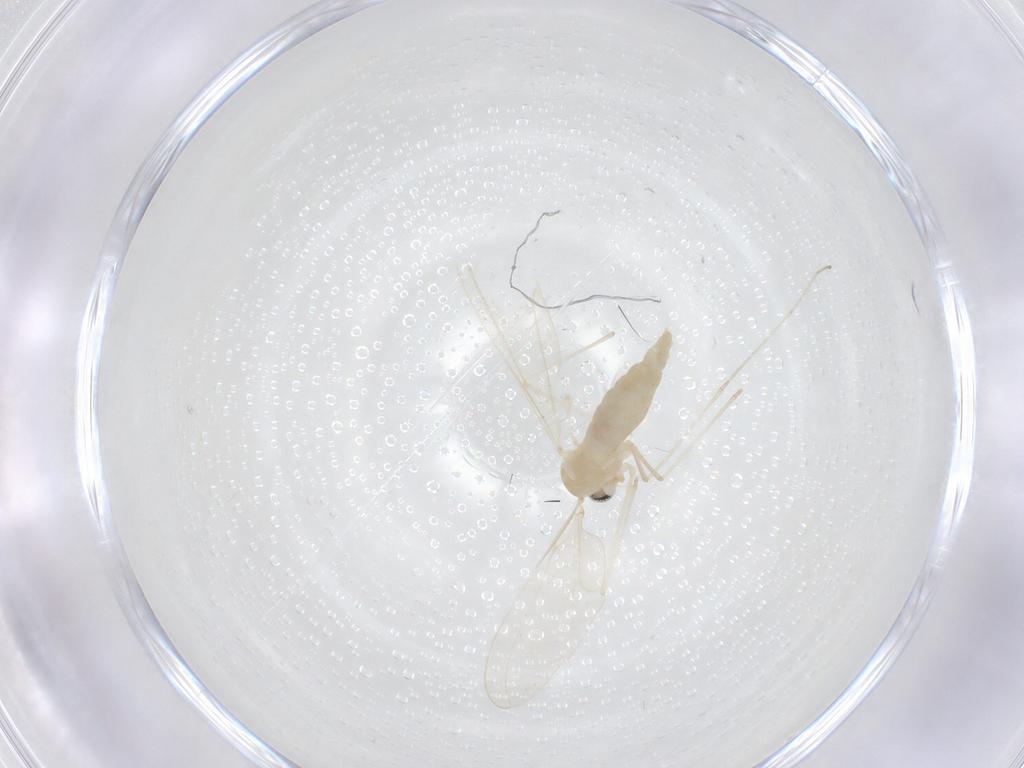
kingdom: Animalia
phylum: Arthropoda
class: Insecta
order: Diptera
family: Cecidomyiidae
